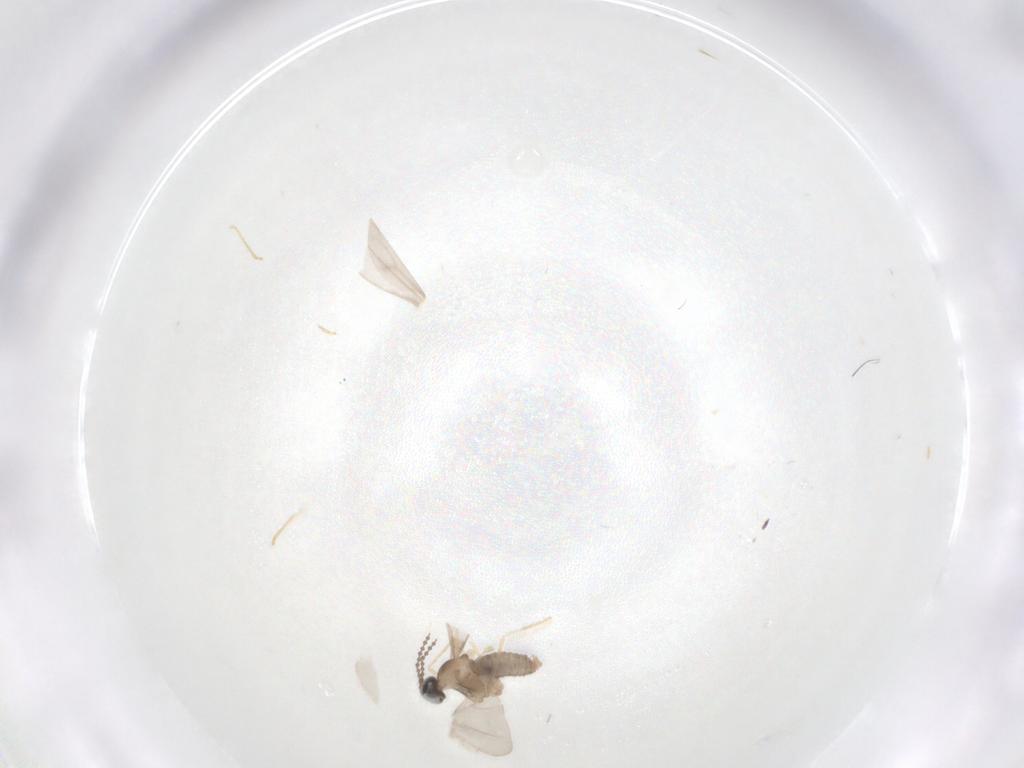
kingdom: Animalia
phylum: Arthropoda
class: Insecta
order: Diptera
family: Cecidomyiidae
